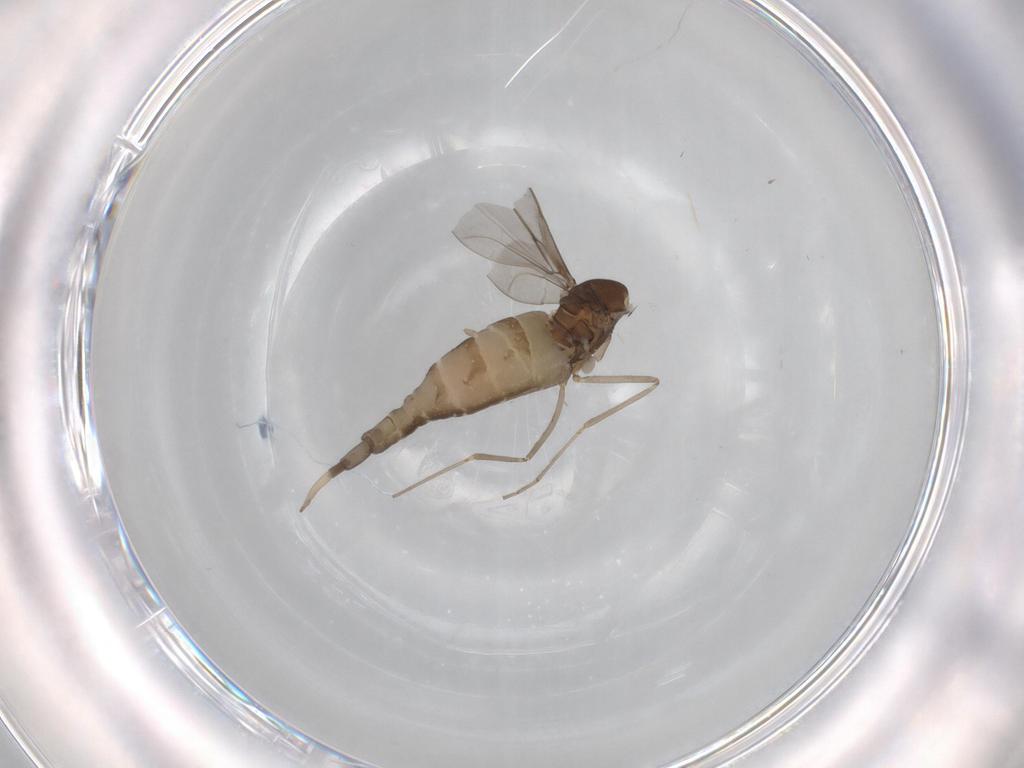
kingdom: Animalia
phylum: Arthropoda
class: Insecta
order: Diptera
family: Cecidomyiidae
